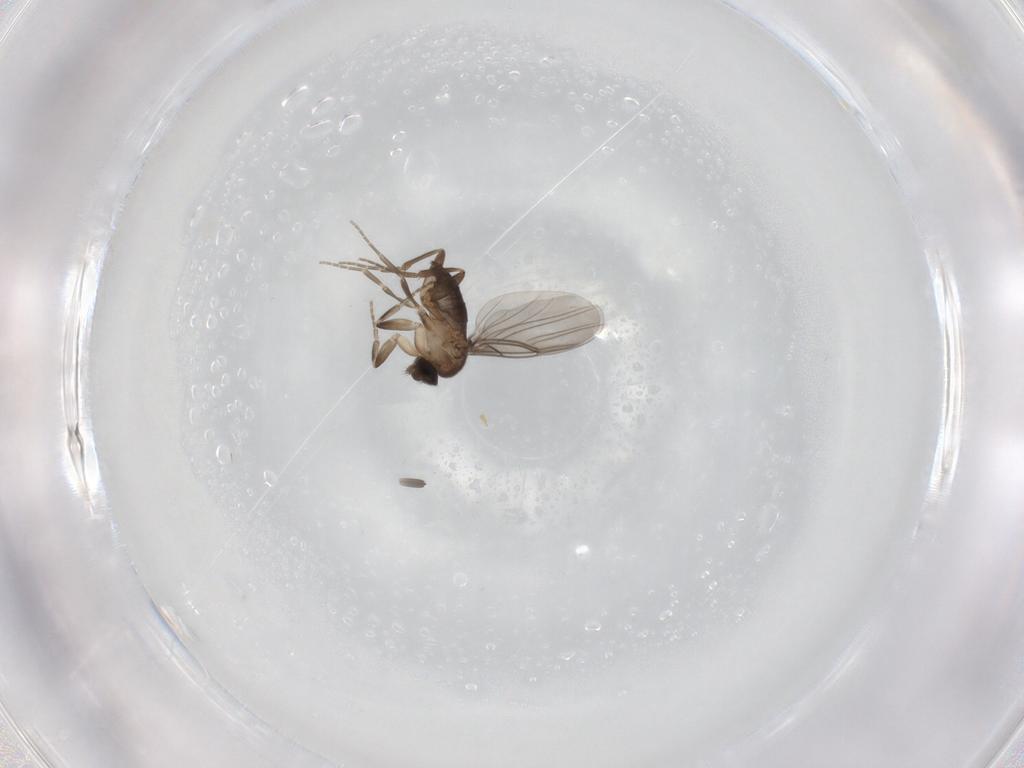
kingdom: Animalia
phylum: Arthropoda
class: Insecta
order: Diptera
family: Phoridae
